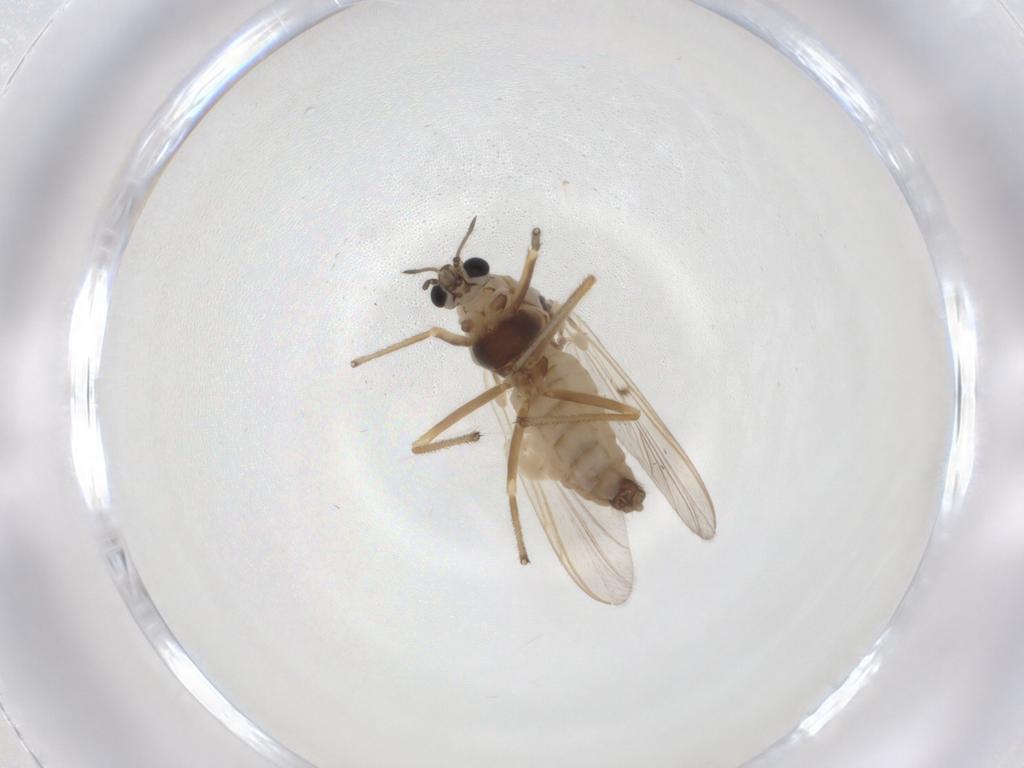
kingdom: Animalia
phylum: Arthropoda
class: Insecta
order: Diptera
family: Chironomidae
